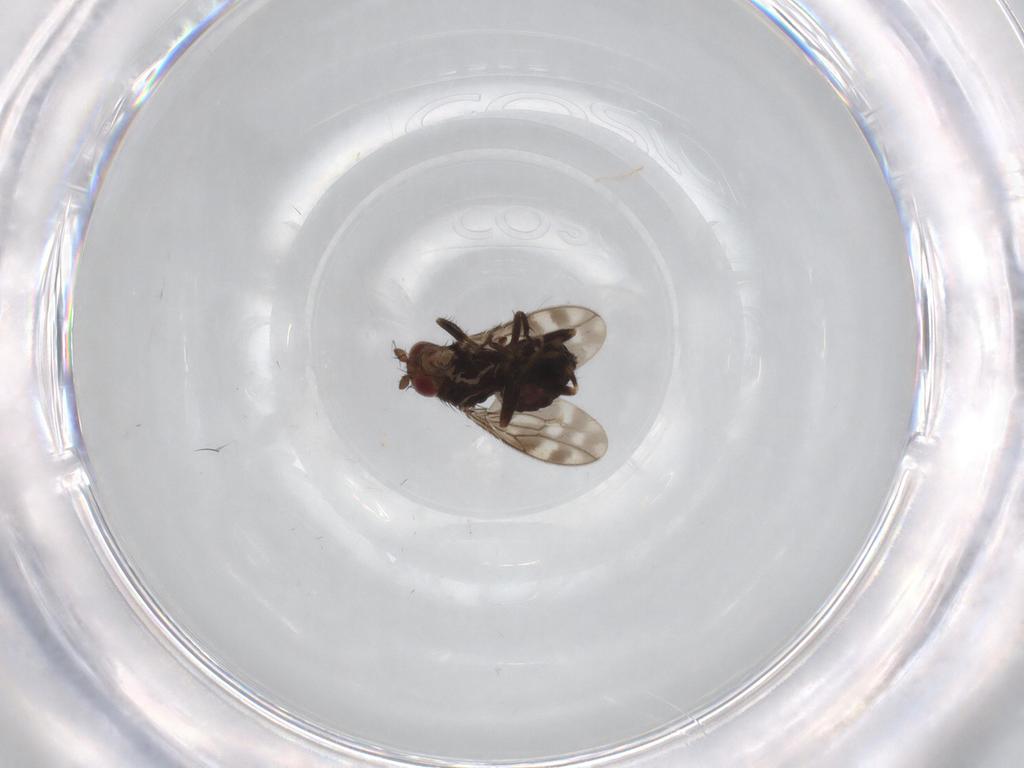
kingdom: Animalia
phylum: Arthropoda
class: Insecta
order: Diptera
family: Sphaeroceridae
